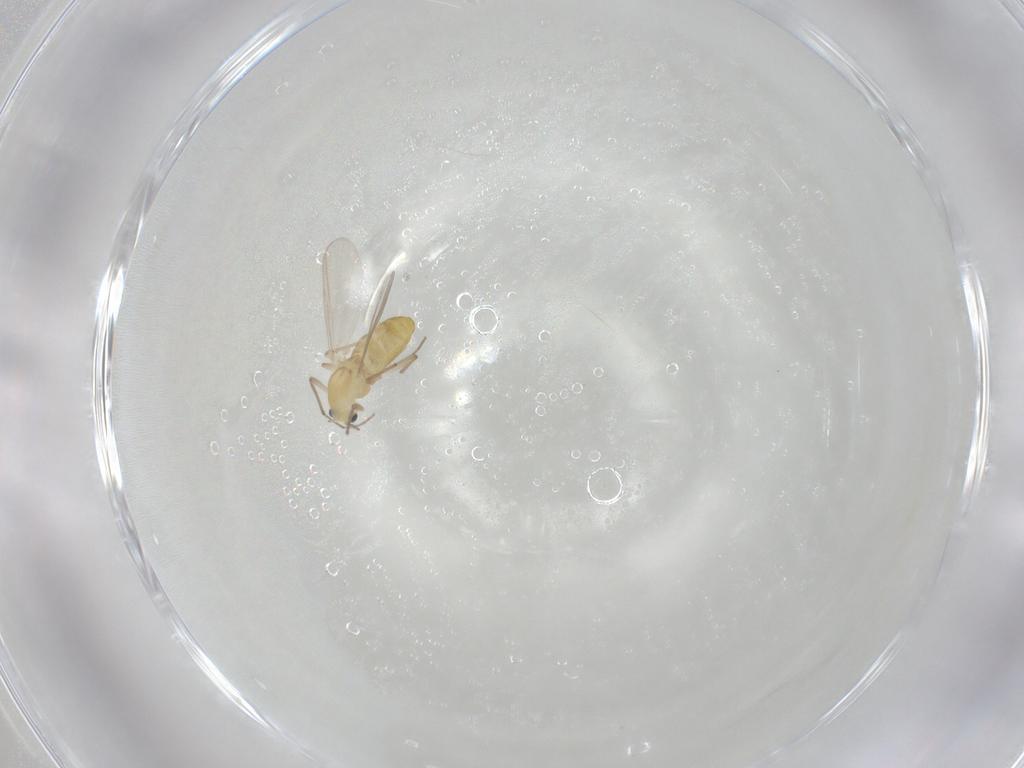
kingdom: Animalia
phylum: Arthropoda
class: Insecta
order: Diptera
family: Chironomidae
